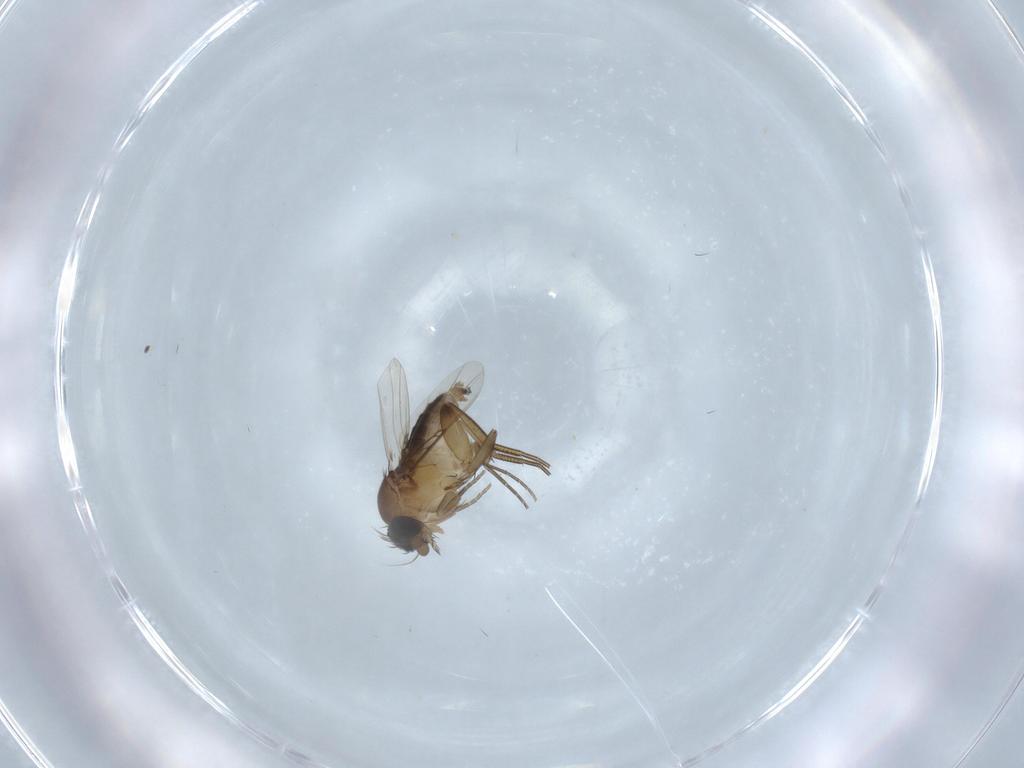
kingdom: Animalia
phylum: Arthropoda
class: Insecta
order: Diptera
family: Phoridae
